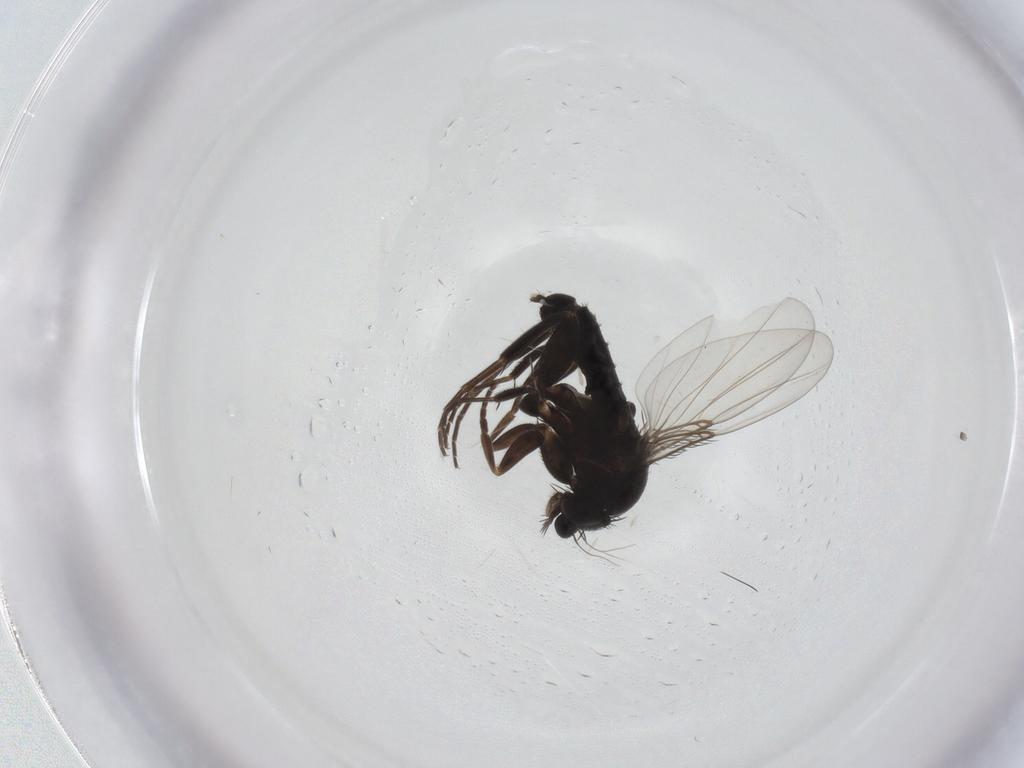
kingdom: Animalia
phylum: Arthropoda
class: Insecta
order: Diptera
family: Phoridae
